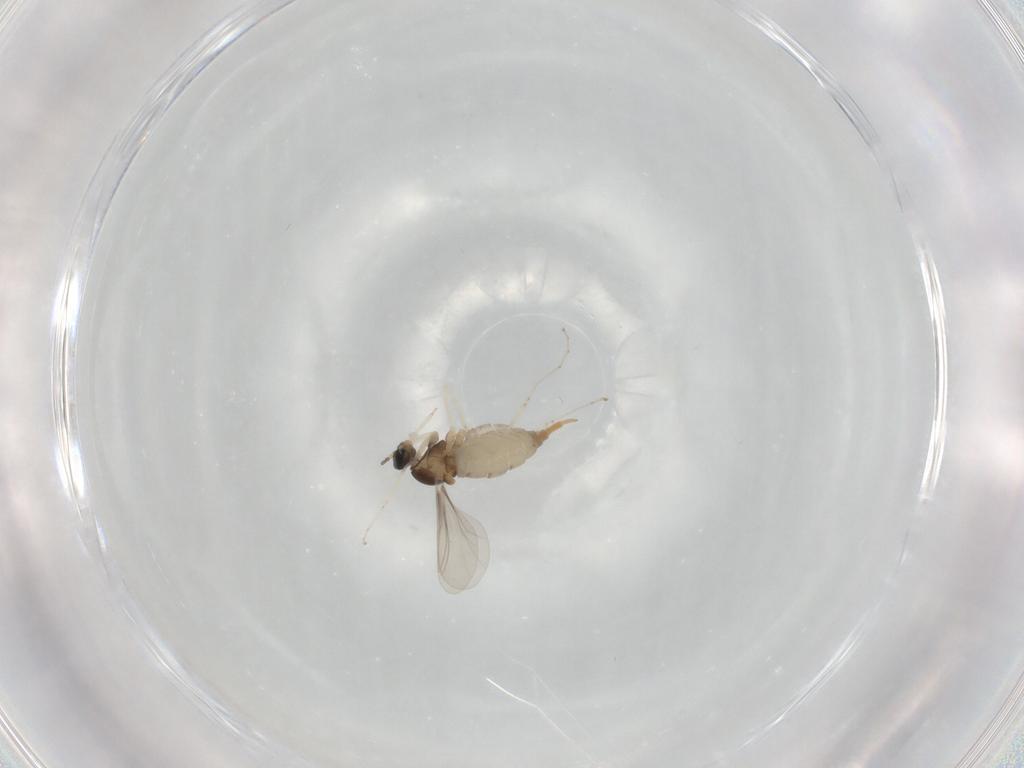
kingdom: Animalia
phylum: Arthropoda
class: Insecta
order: Diptera
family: Cecidomyiidae
